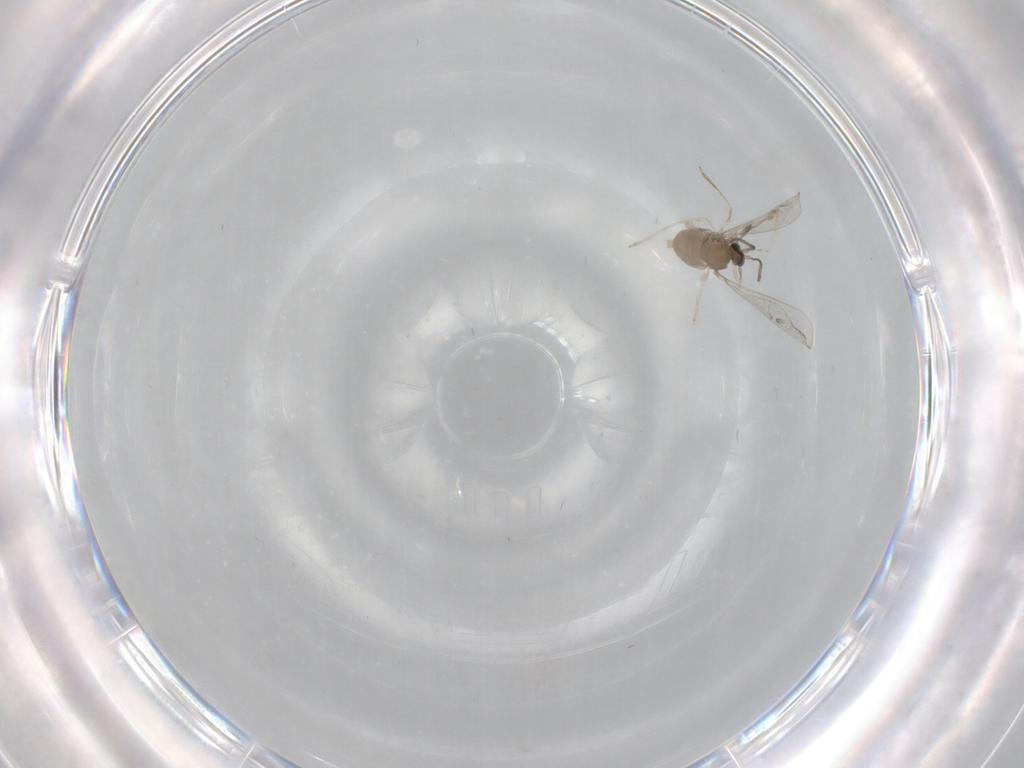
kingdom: Animalia
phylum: Arthropoda
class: Insecta
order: Diptera
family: Cecidomyiidae
